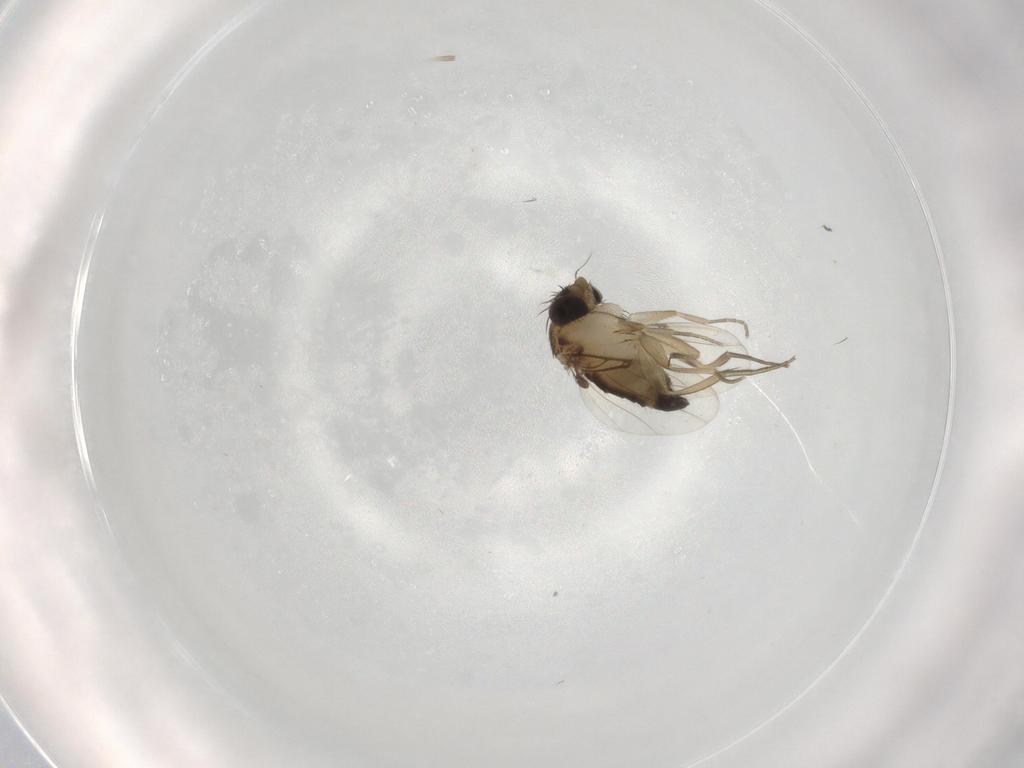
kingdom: Animalia
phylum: Arthropoda
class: Insecta
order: Diptera
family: Phoridae
